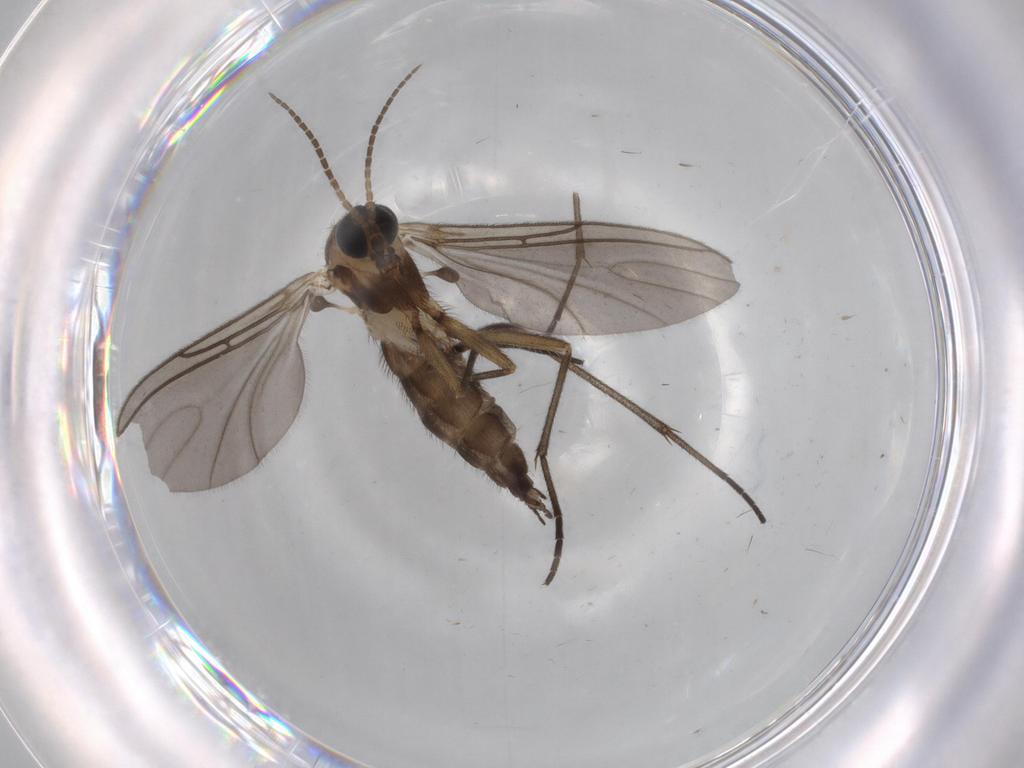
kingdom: Animalia
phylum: Arthropoda
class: Insecta
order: Diptera
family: Sciaridae
